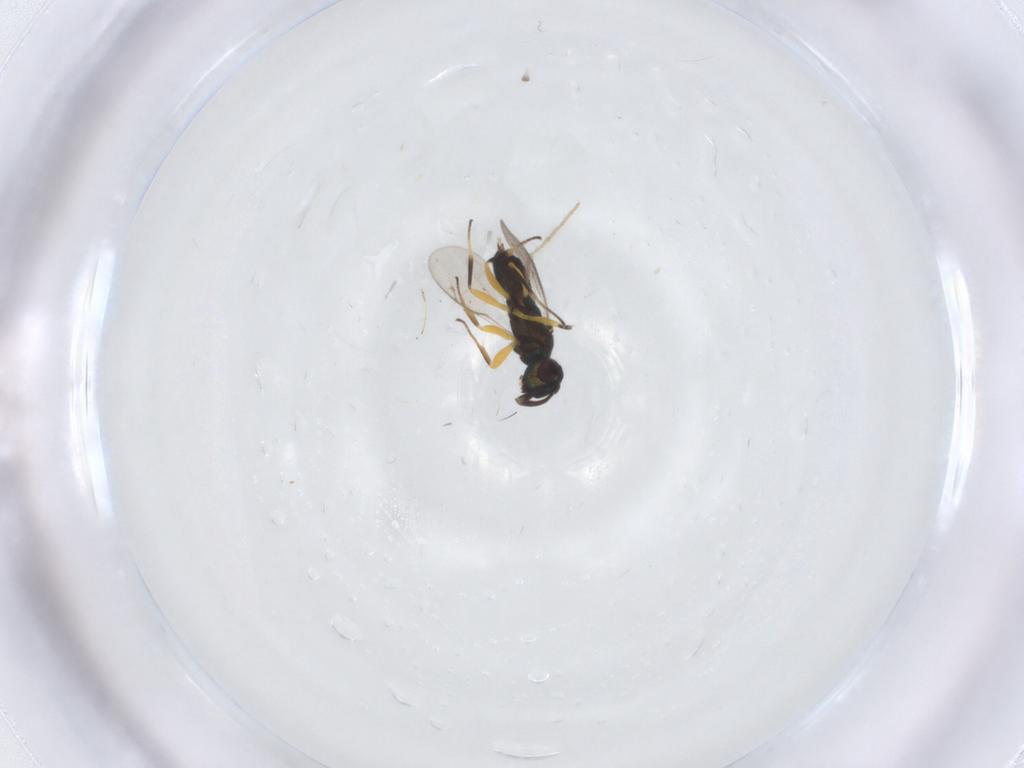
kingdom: Animalia
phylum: Arthropoda
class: Insecta
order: Hymenoptera
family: Eupelmidae
